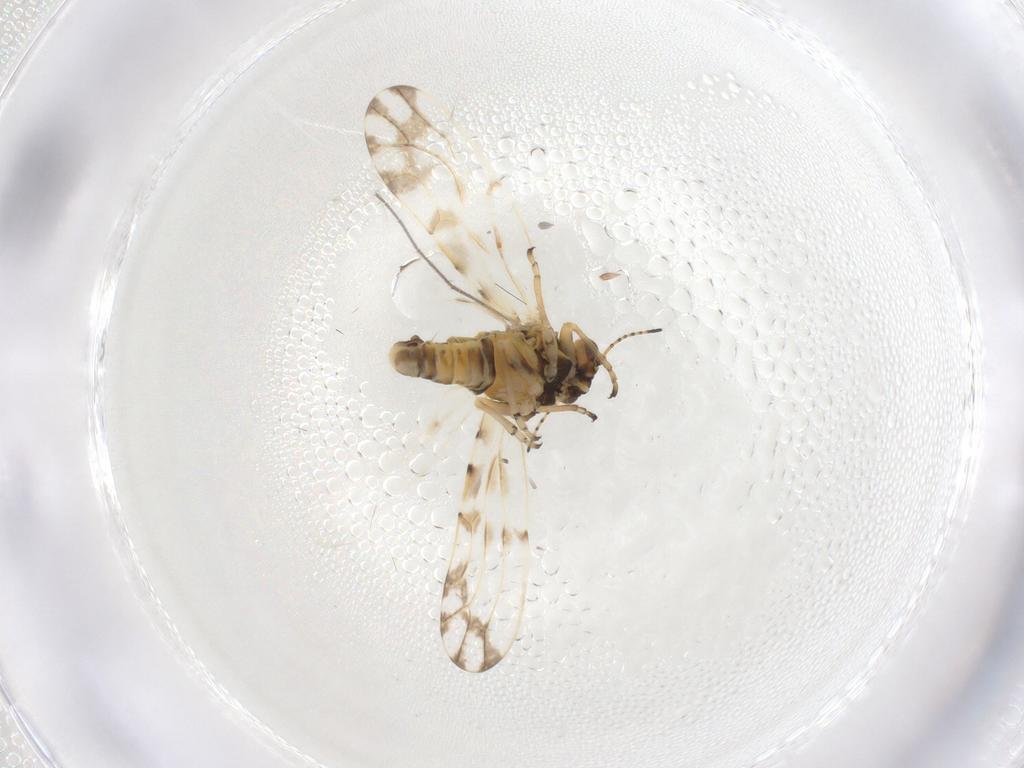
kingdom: Animalia
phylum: Arthropoda
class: Insecta
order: Hemiptera
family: Psylloidea_incertae_sedis
